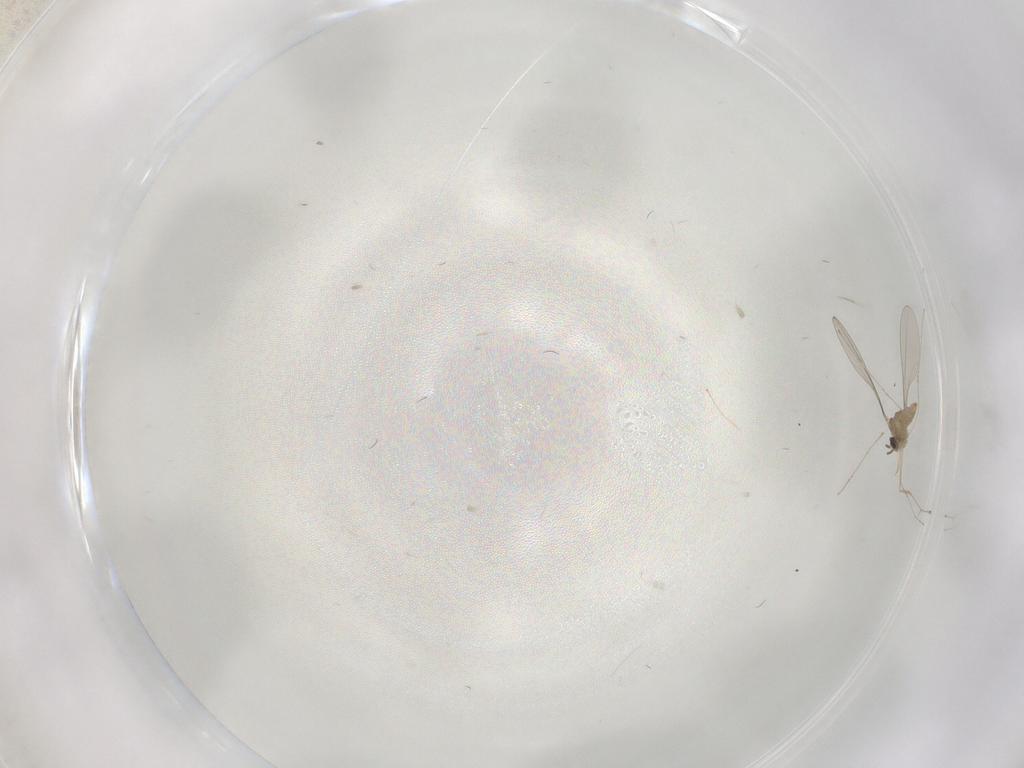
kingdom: Animalia
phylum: Arthropoda
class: Insecta
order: Diptera
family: Cecidomyiidae
